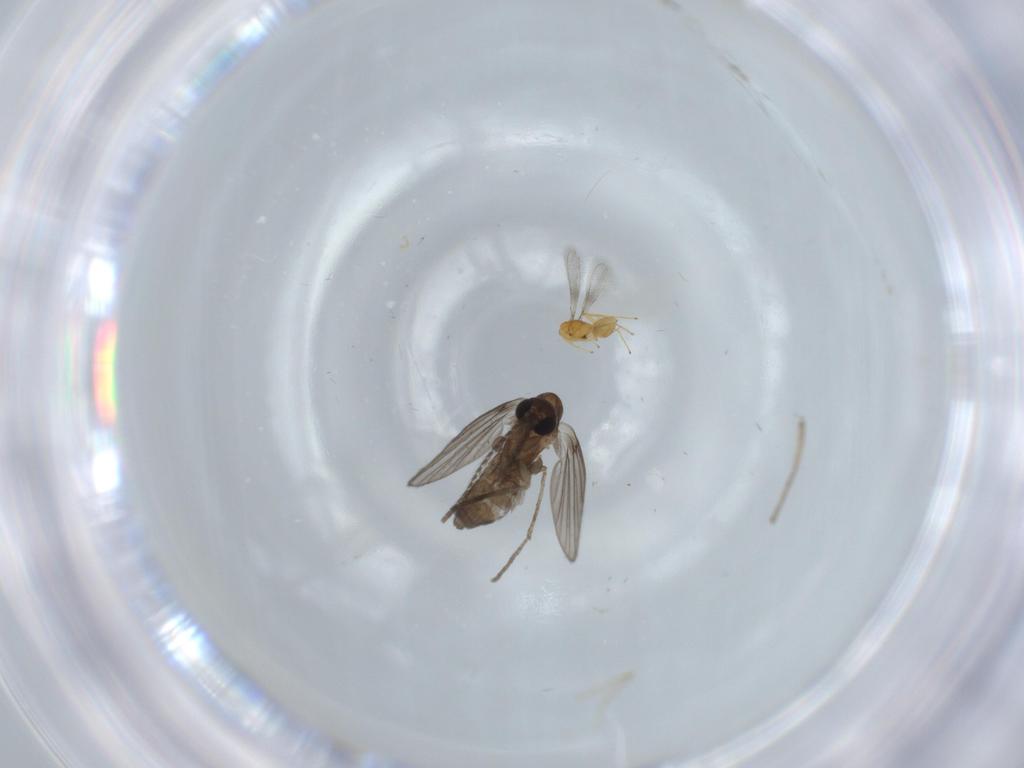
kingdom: Animalia
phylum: Arthropoda
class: Insecta
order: Diptera
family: Psychodidae
